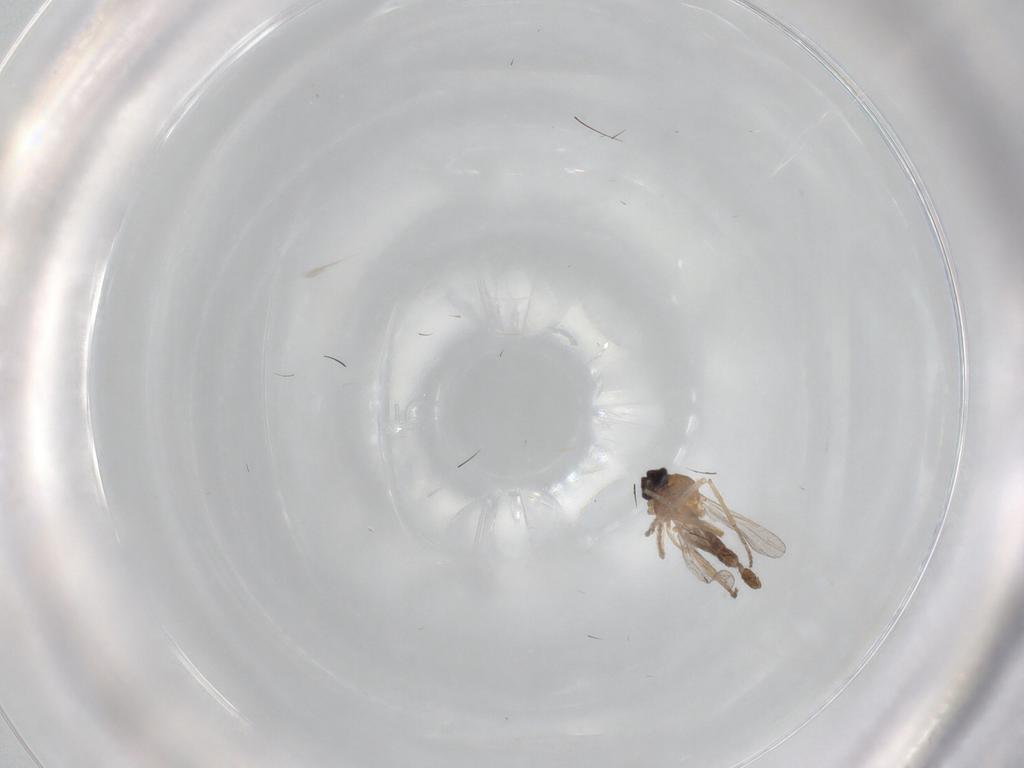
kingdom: Animalia
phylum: Arthropoda
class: Insecta
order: Diptera
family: Ceratopogonidae
